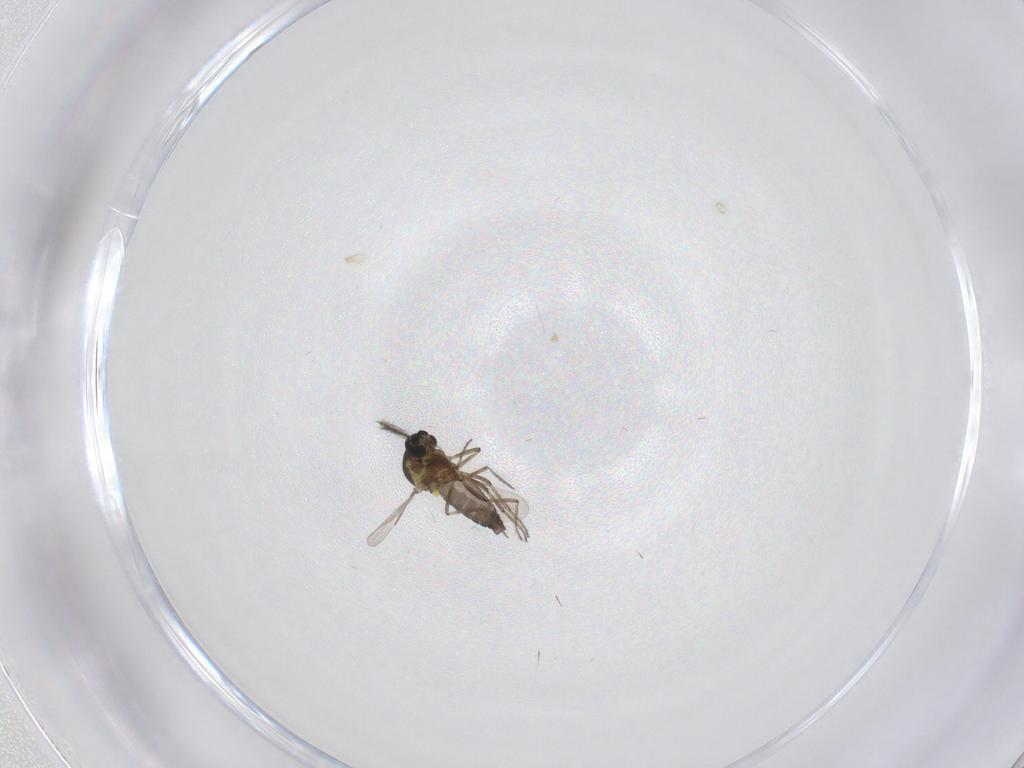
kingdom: Animalia
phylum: Arthropoda
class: Insecta
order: Diptera
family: Ceratopogonidae
